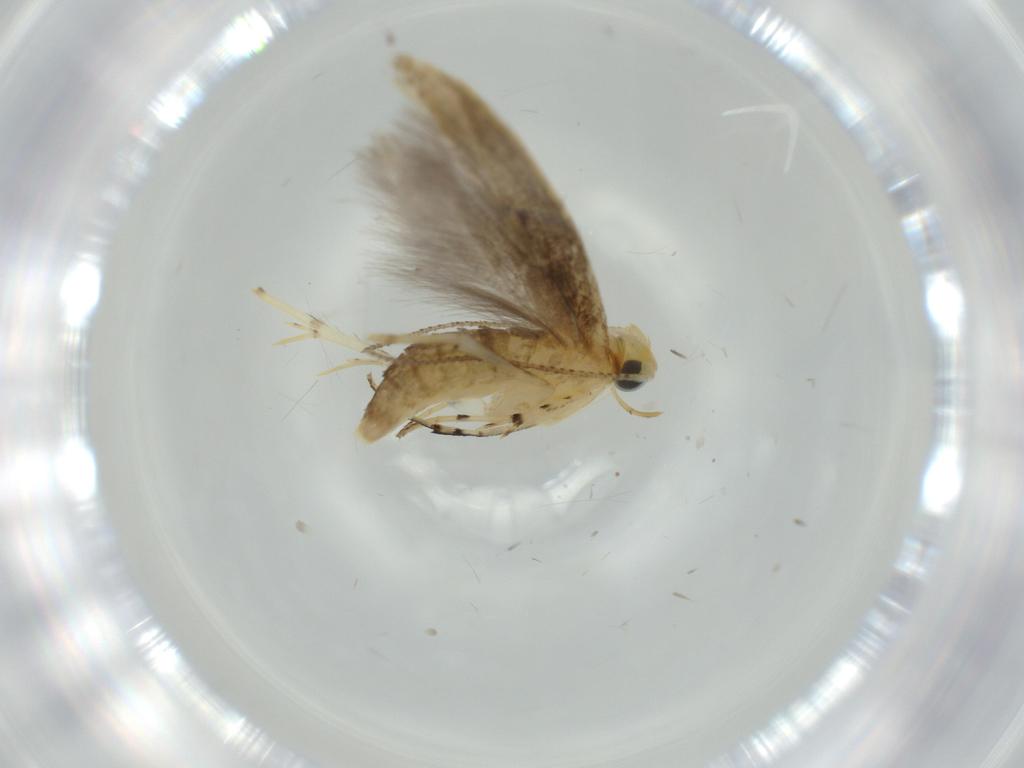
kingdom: Animalia
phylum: Arthropoda
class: Insecta
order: Lepidoptera
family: Argyresthiidae
